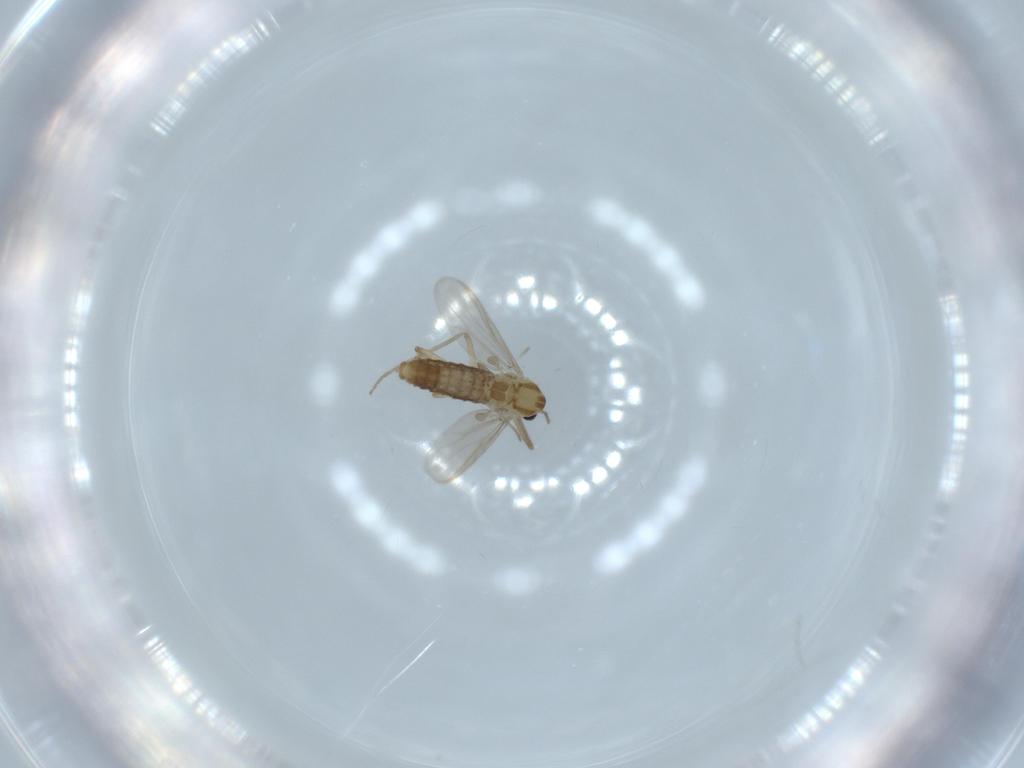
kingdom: Animalia
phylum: Arthropoda
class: Insecta
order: Diptera
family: Chironomidae
